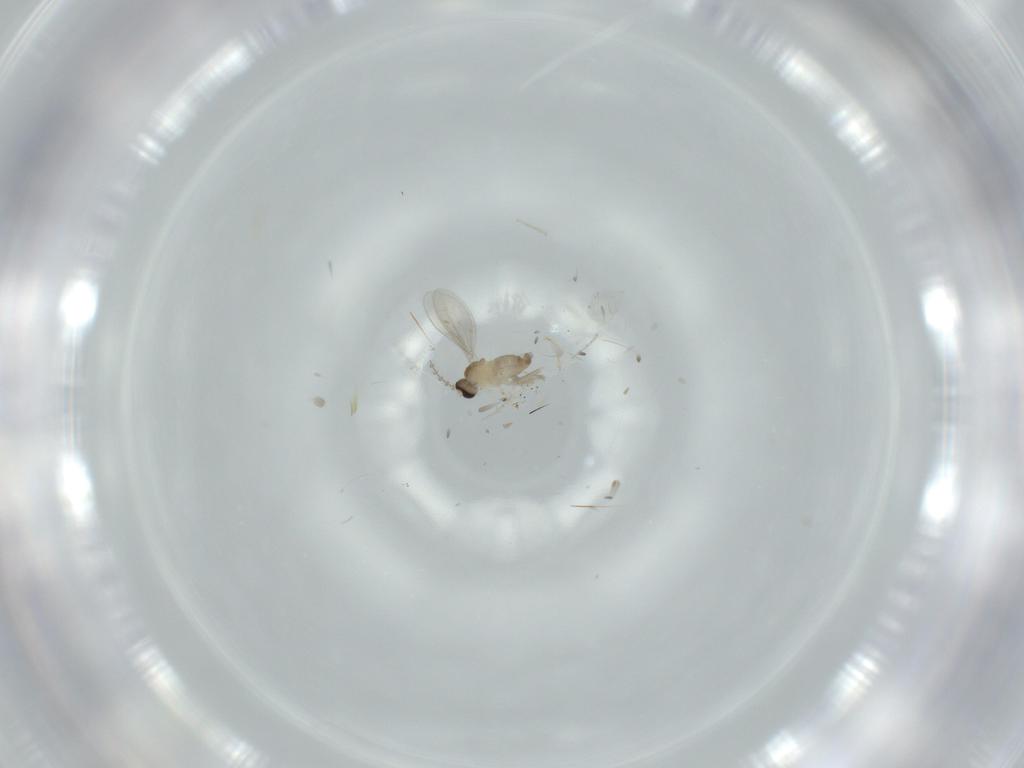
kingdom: Animalia
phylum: Arthropoda
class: Insecta
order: Diptera
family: Cecidomyiidae
